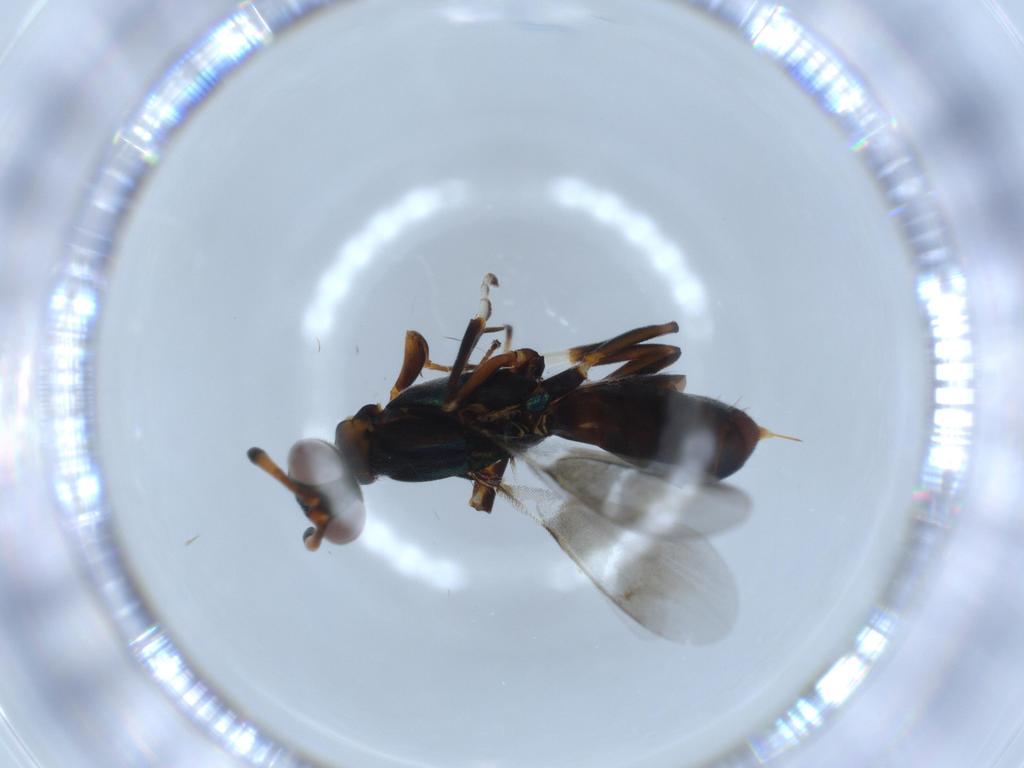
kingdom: Animalia
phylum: Arthropoda
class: Insecta
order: Hymenoptera
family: Eupelmidae
